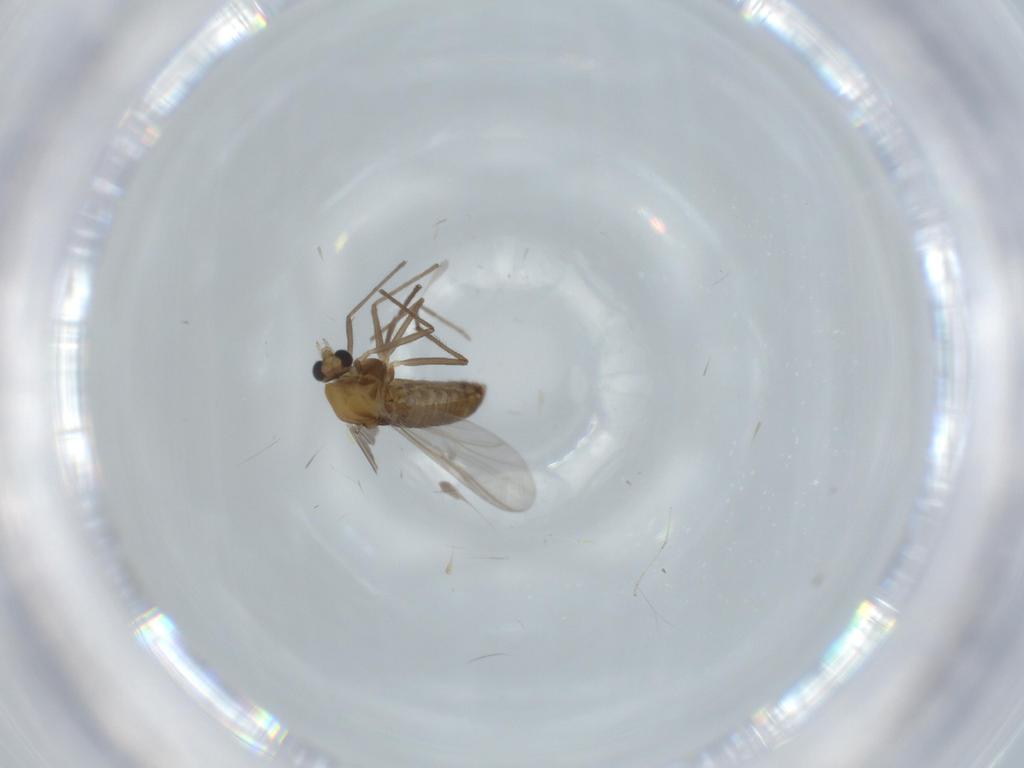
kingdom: Animalia
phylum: Arthropoda
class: Insecta
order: Diptera
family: Chironomidae
